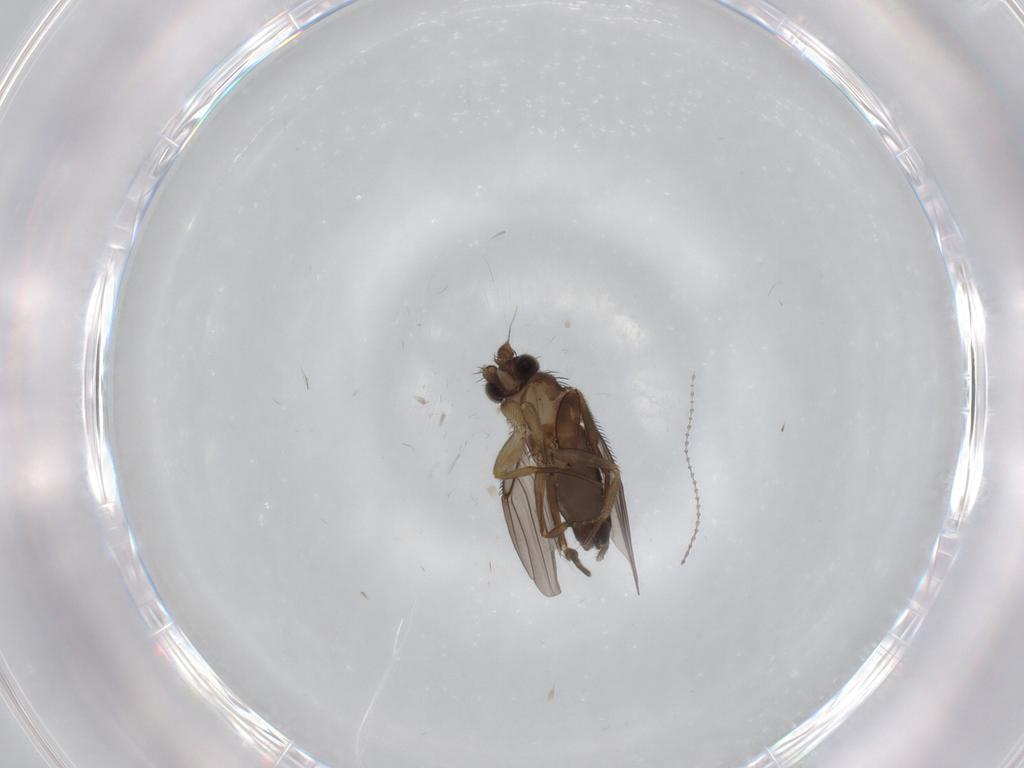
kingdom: Animalia
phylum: Arthropoda
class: Insecta
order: Diptera
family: Cecidomyiidae
